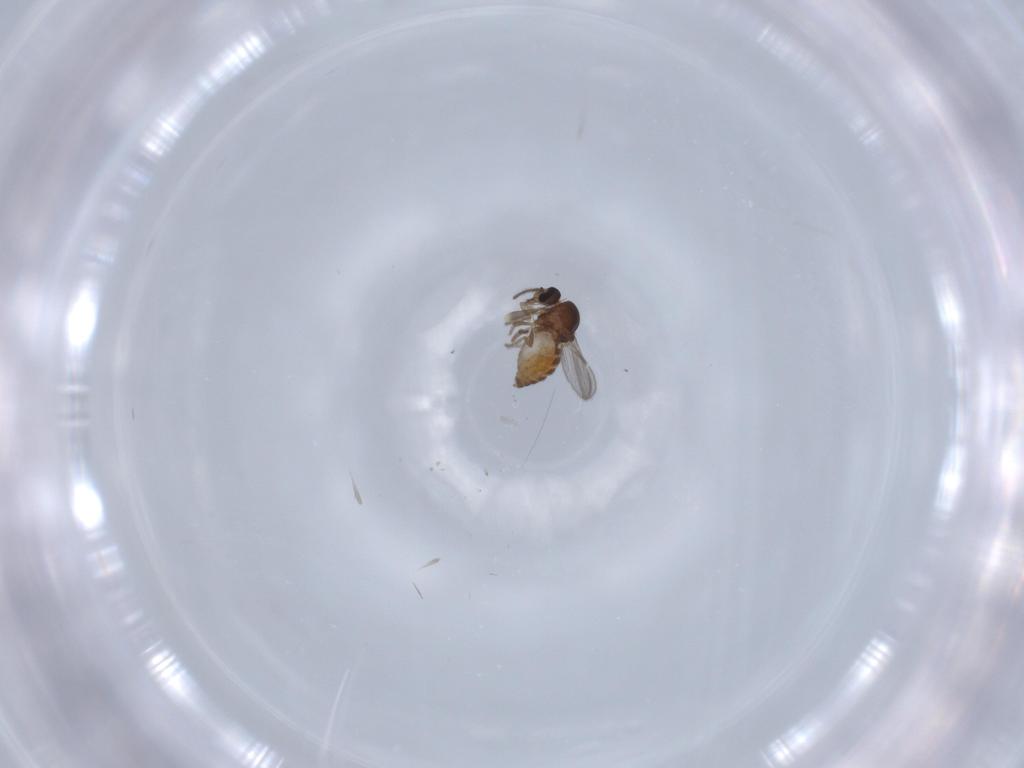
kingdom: Animalia
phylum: Arthropoda
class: Insecta
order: Diptera
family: Ceratopogonidae
